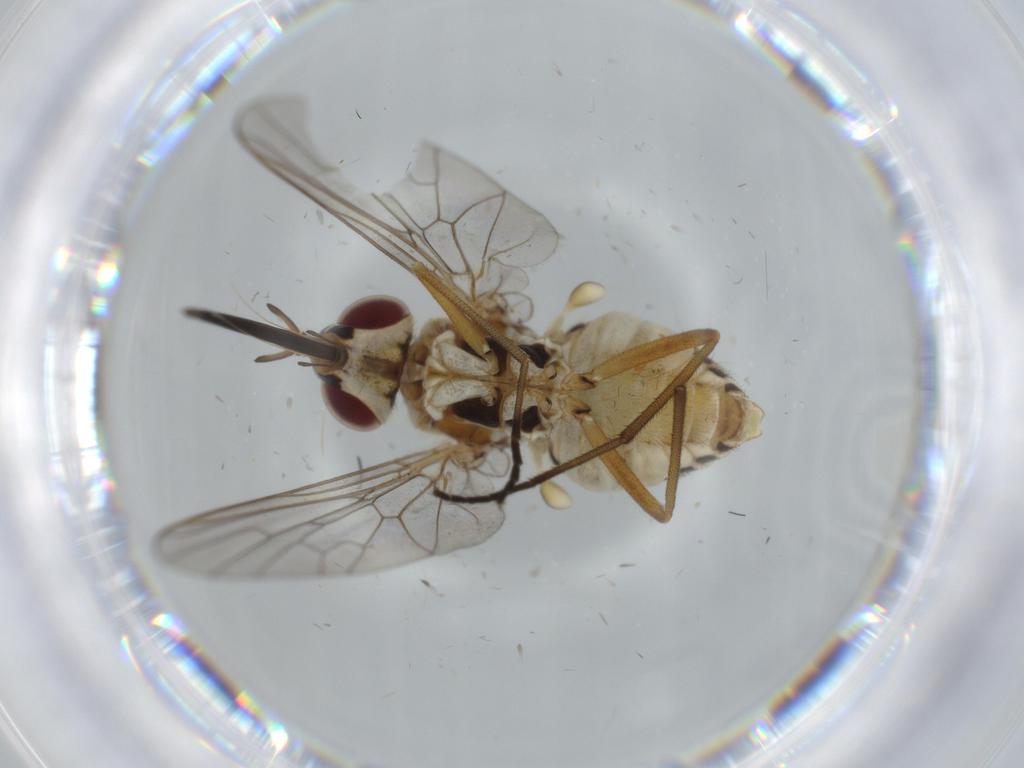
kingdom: Animalia
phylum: Arthropoda
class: Insecta
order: Diptera
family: Bombyliidae
